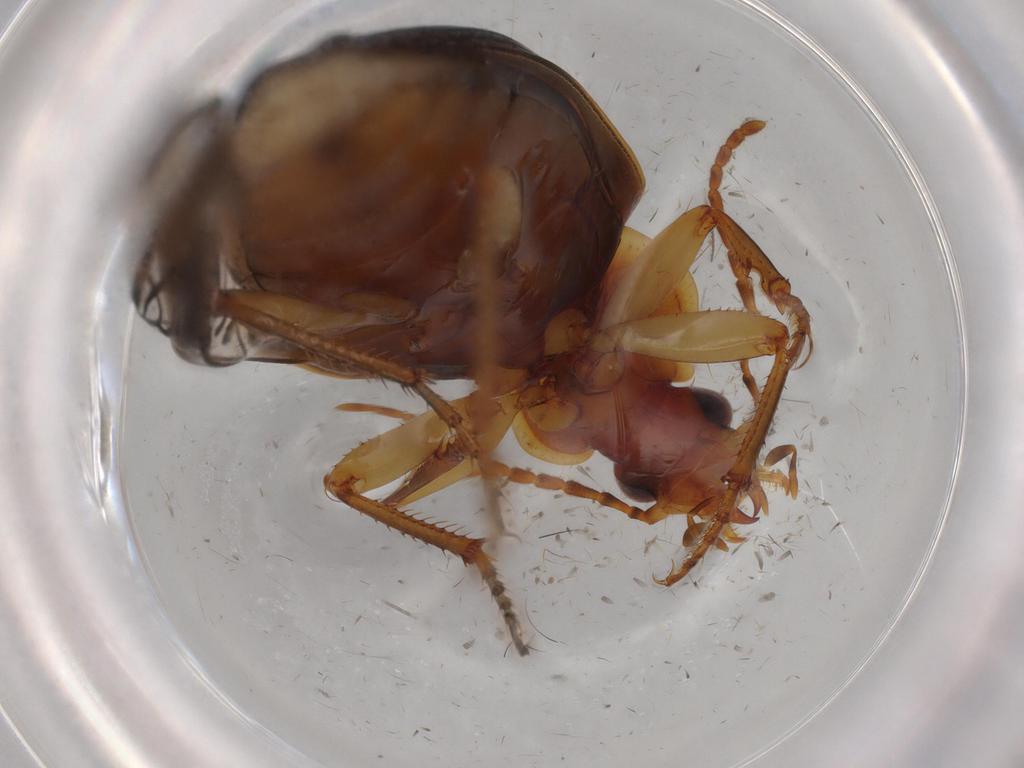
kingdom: Animalia
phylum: Arthropoda
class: Insecta
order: Coleoptera
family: Carabidae
